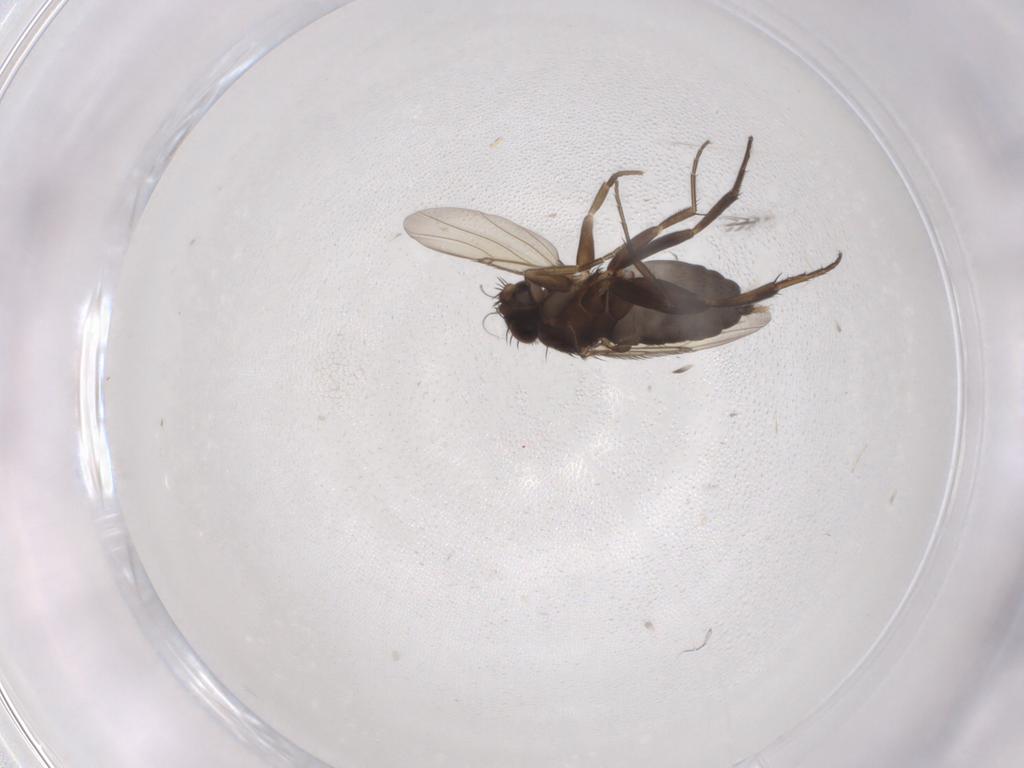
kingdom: Animalia
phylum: Arthropoda
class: Insecta
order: Diptera
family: Phoridae
